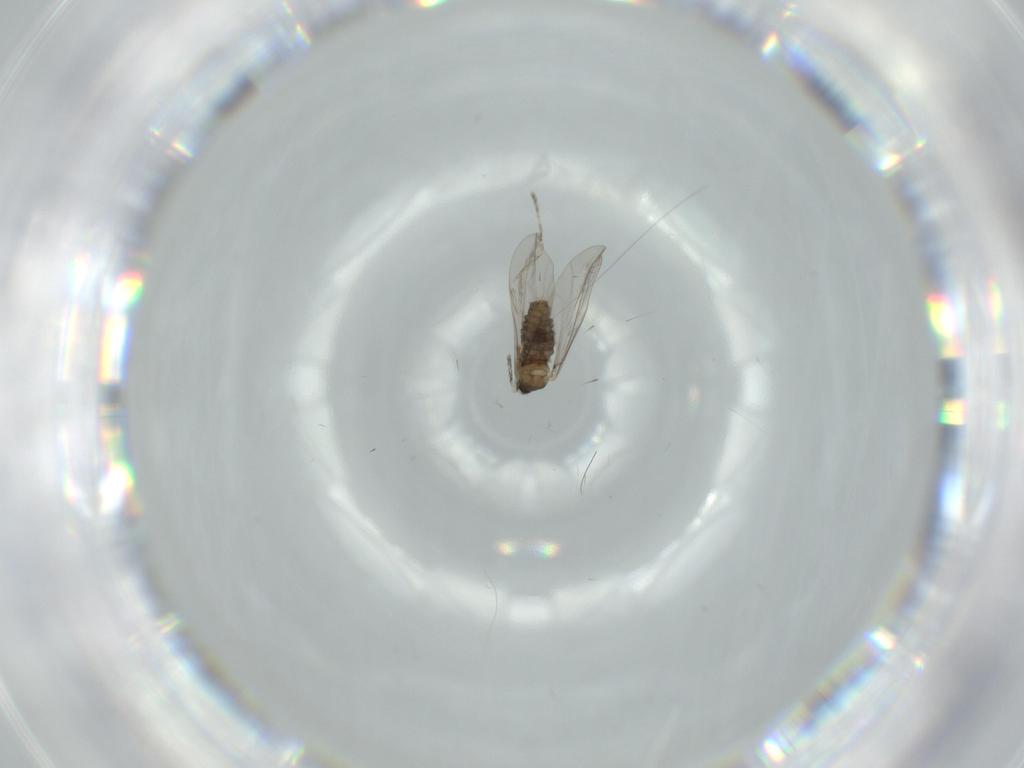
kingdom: Animalia
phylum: Arthropoda
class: Insecta
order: Diptera
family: Cecidomyiidae
